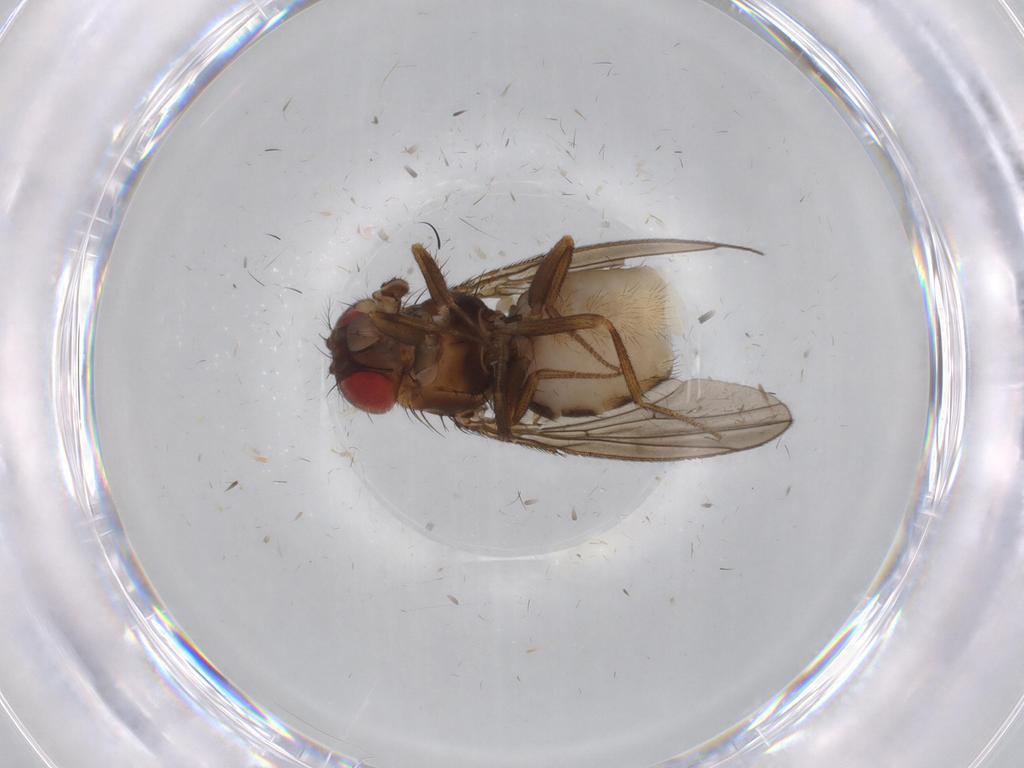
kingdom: Animalia
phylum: Arthropoda
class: Insecta
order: Diptera
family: Drosophilidae
